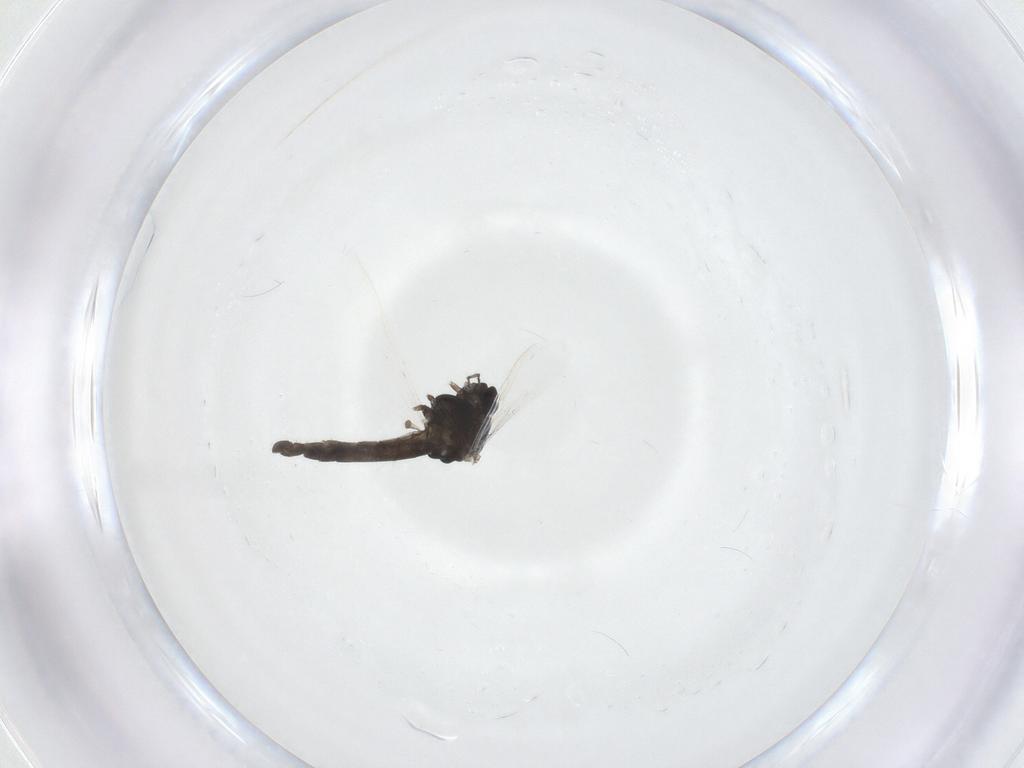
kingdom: Animalia
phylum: Arthropoda
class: Insecta
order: Diptera
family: Chironomidae
